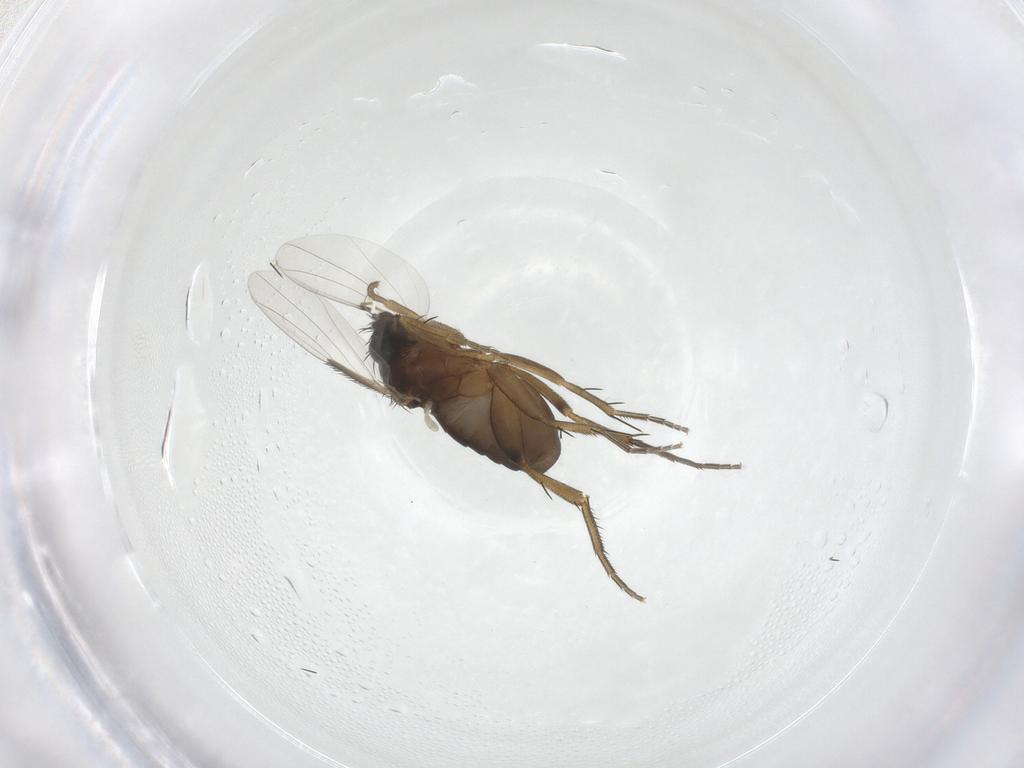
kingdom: Animalia
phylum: Arthropoda
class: Insecta
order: Diptera
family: Phoridae
